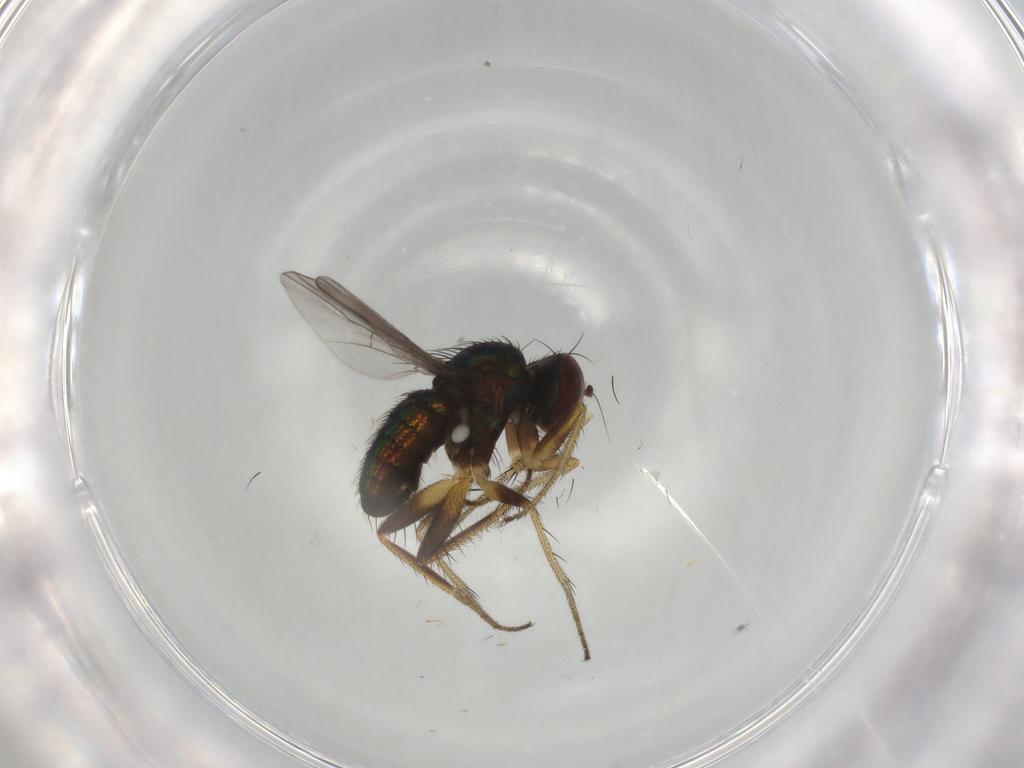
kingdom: Animalia
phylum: Arthropoda
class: Insecta
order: Diptera
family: Dolichopodidae
